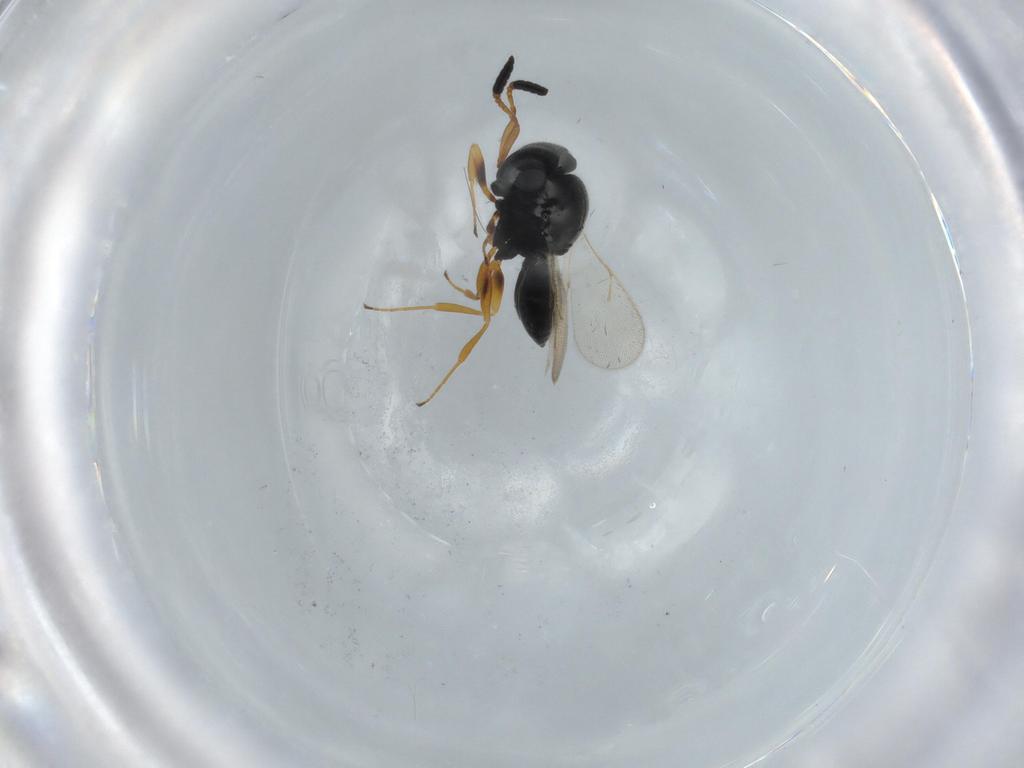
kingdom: Animalia
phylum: Arthropoda
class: Insecta
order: Hymenoptera
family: Scelionidae
